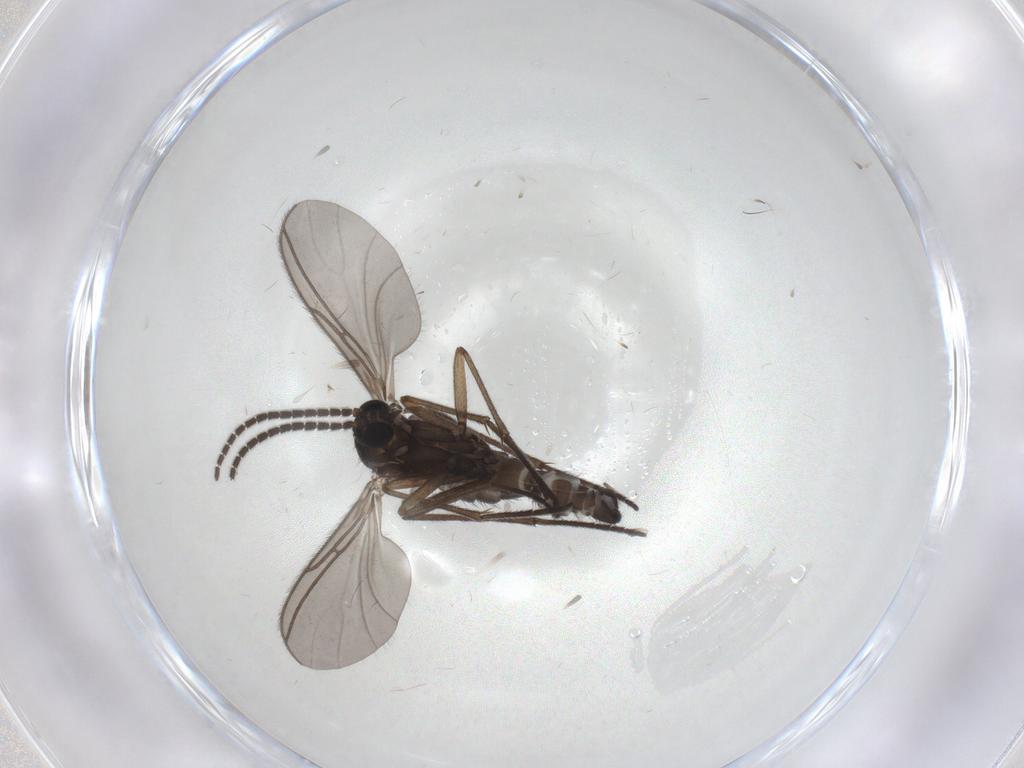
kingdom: Animalia
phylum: Arthropoda
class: Insecta
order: Diptera
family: Sciaridae
